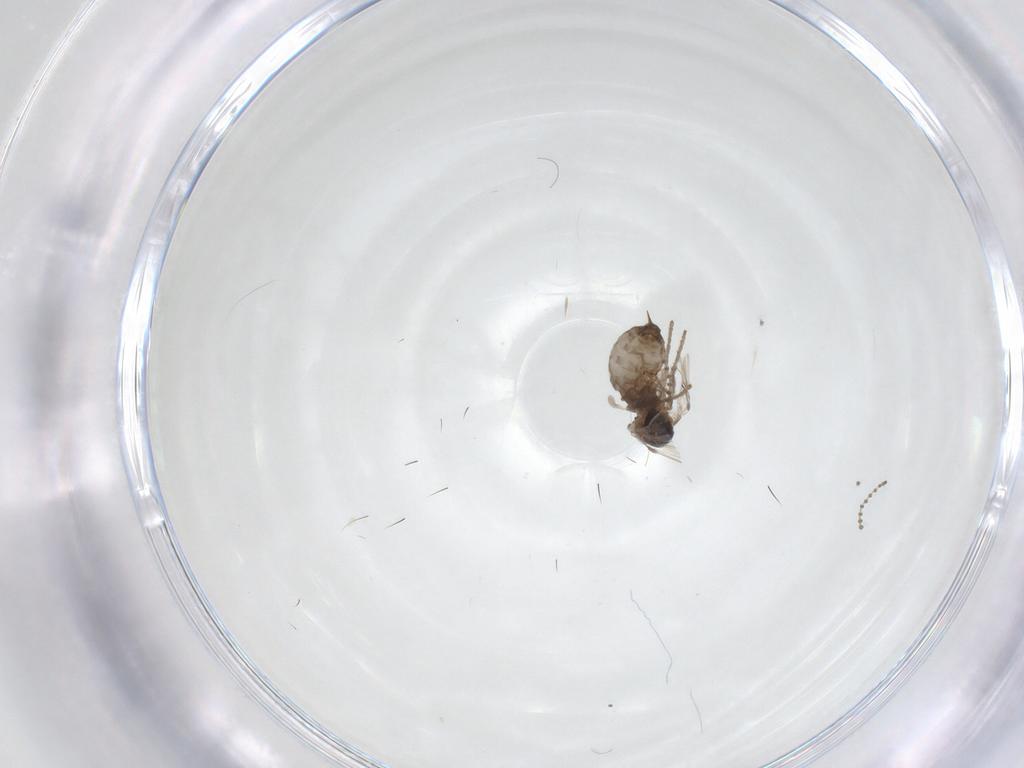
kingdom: Animalia
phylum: Arthropoda
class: Insecta
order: Diptera
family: Psychodidae
